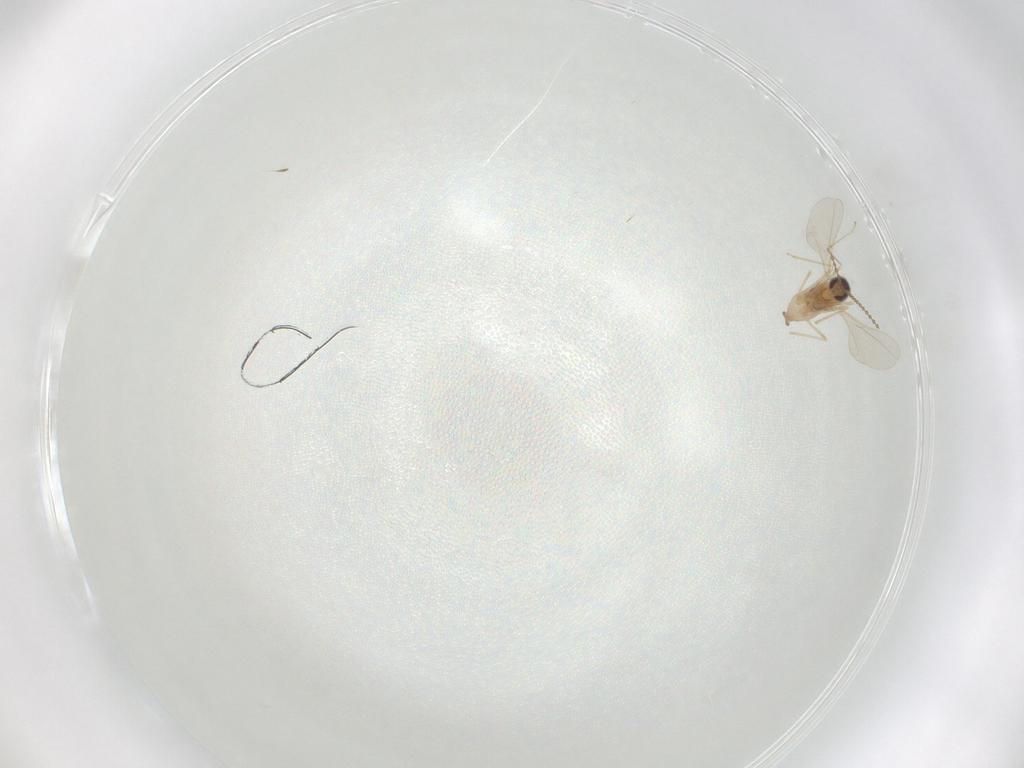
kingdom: Animalia
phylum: Arthropoda
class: Insecta
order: Diptera
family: Cecidomyiidae
